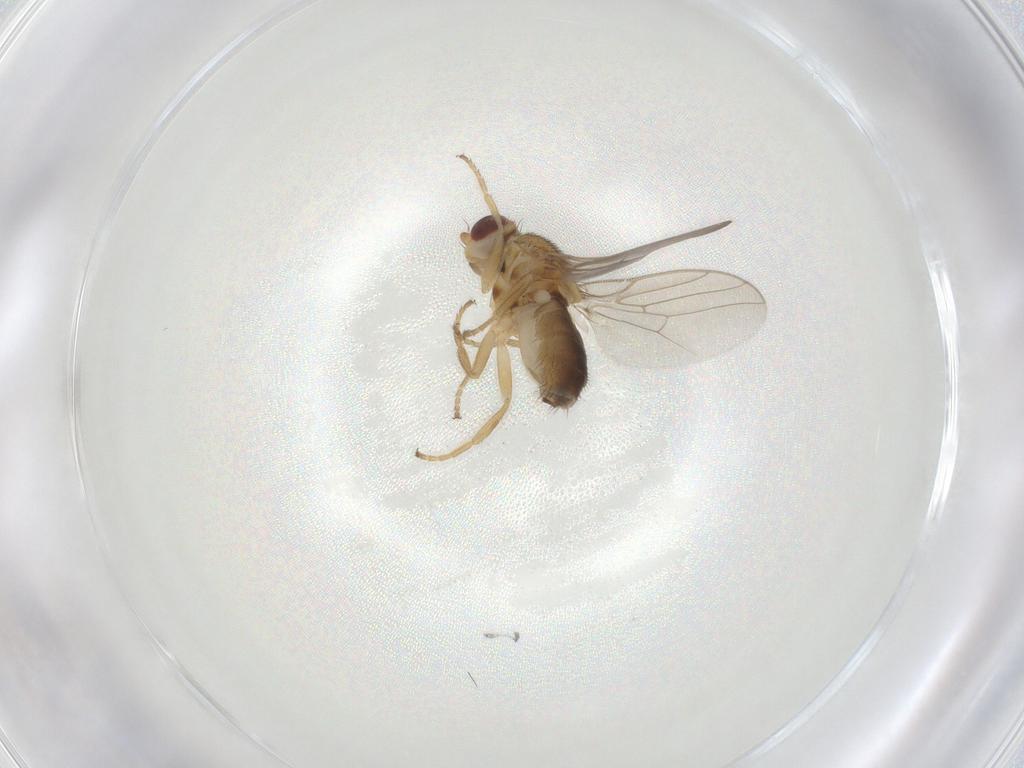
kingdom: Animalia
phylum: Arthropoda
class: Insecta
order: Diptera
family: Chloropidae
